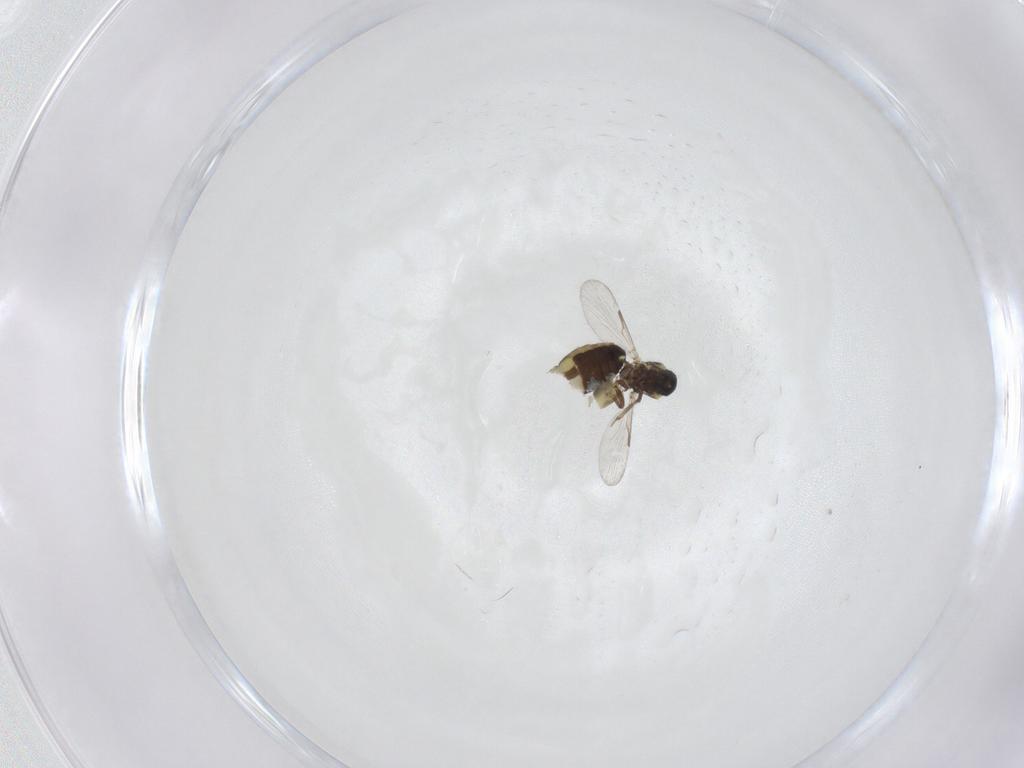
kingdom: Animalia
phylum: Arthropoda
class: Insecta
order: Diptera
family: Ceratopogonidae
